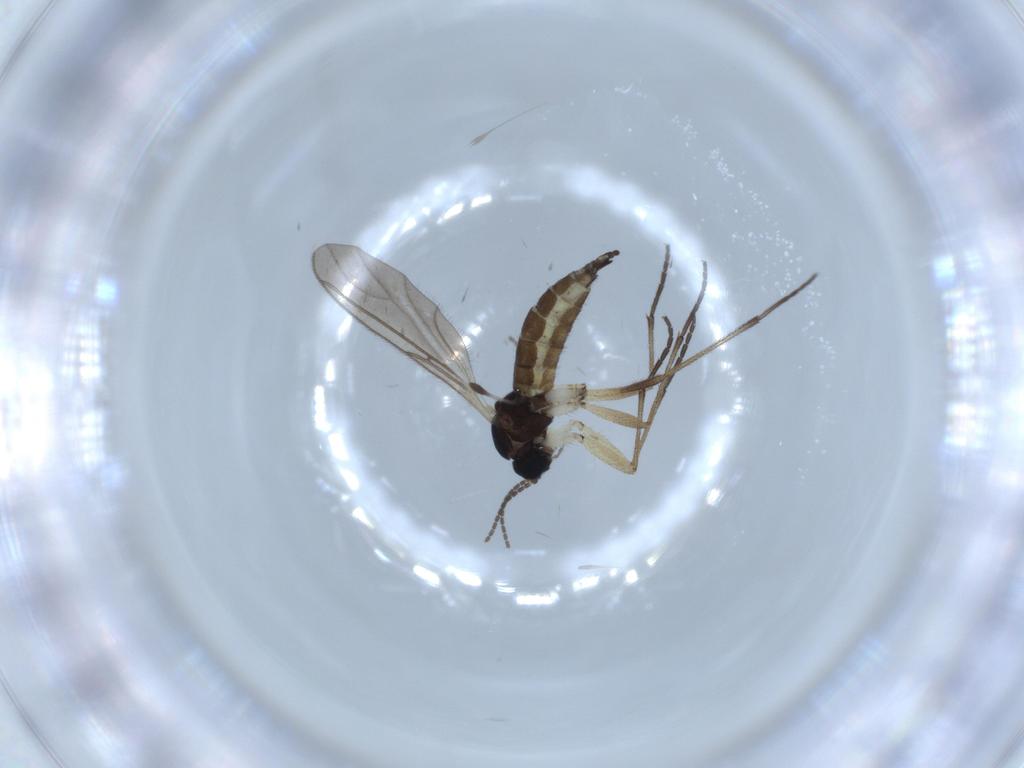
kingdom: Animalia
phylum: Arthropoda
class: Insecta
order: Diptera
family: Sciaridae
